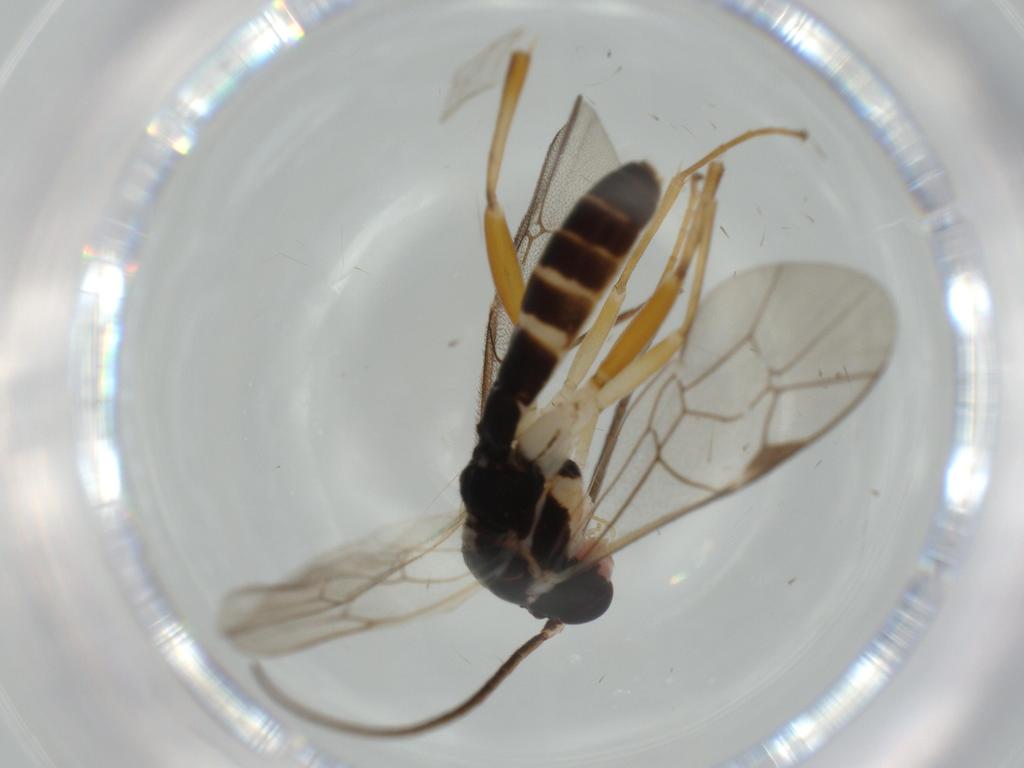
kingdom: Animalia
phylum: Arthropoda
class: Insecta
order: Hymenoptera
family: Ichneumonidae
